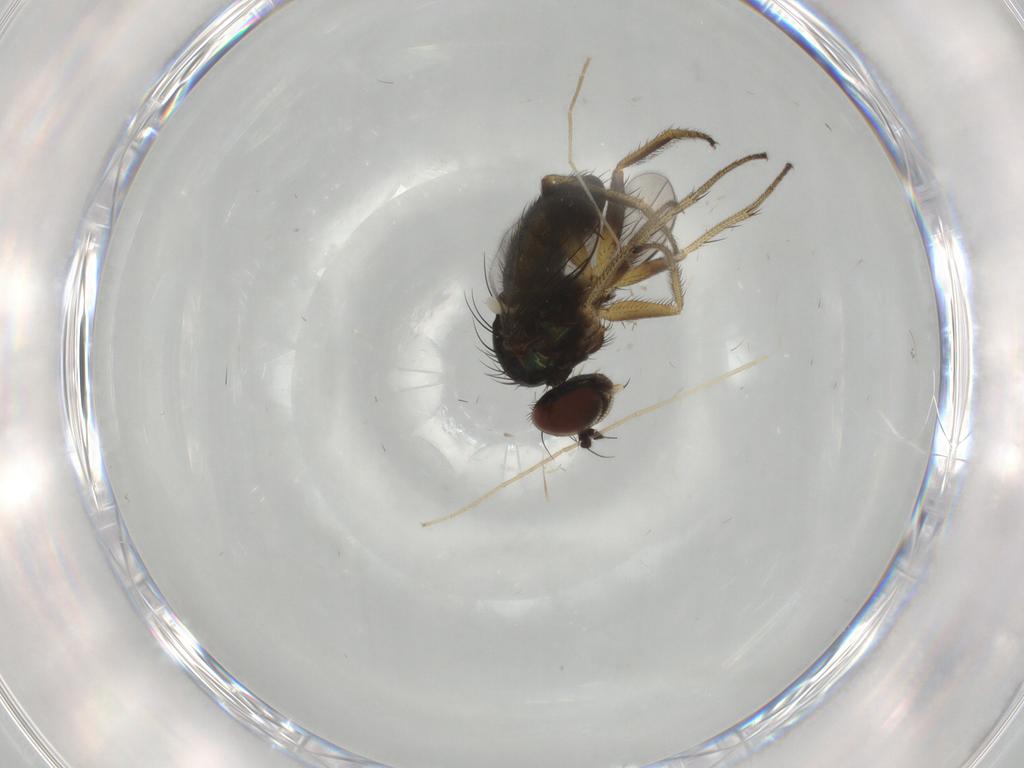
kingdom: Animalia
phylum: Arthropoda
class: Insecta
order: Diptera
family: Dolichopodidae
